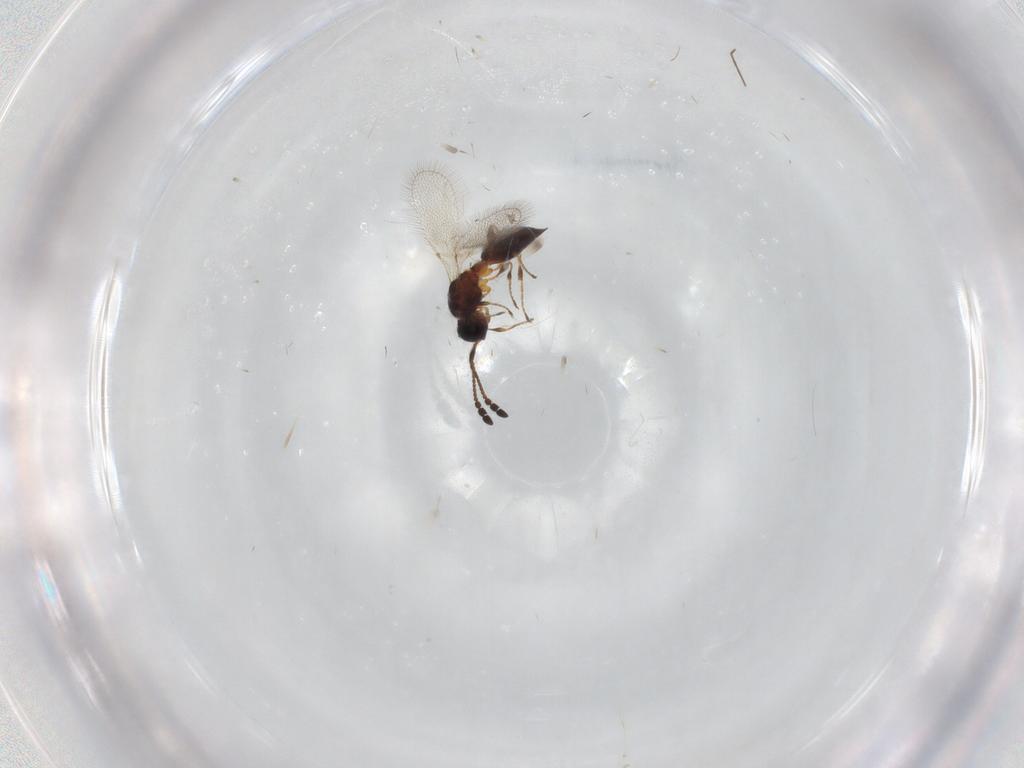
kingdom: Animalia
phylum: Arthropoda
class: Insecta
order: Hymenoptera
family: Diapriidae
